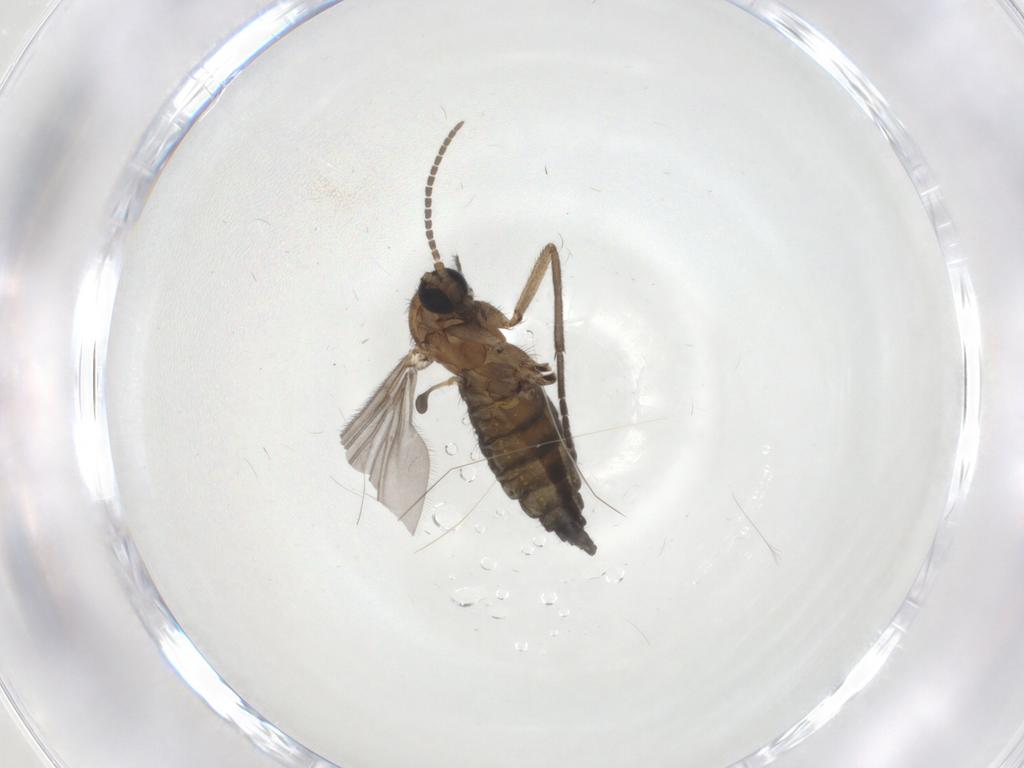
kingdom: Animalia
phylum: Arthropoda
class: Insecta
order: Diptera
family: Sciaridae
